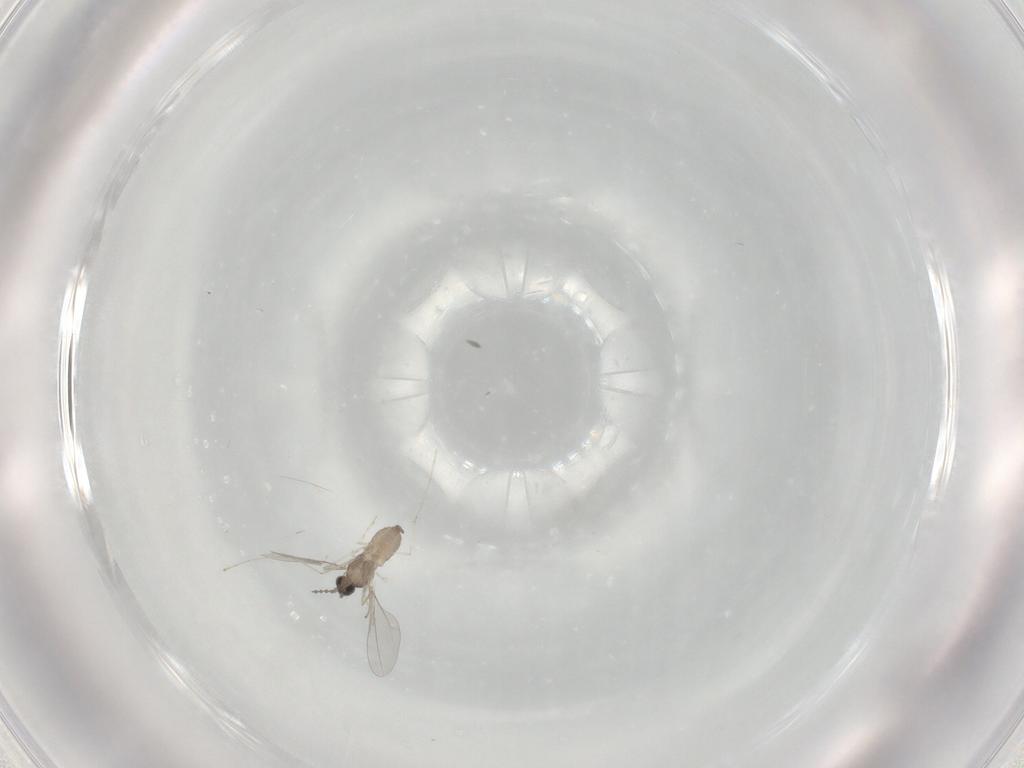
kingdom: Animalia
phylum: Arthropoda
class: Insecta
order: Diptera
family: Cecidomyiidae
